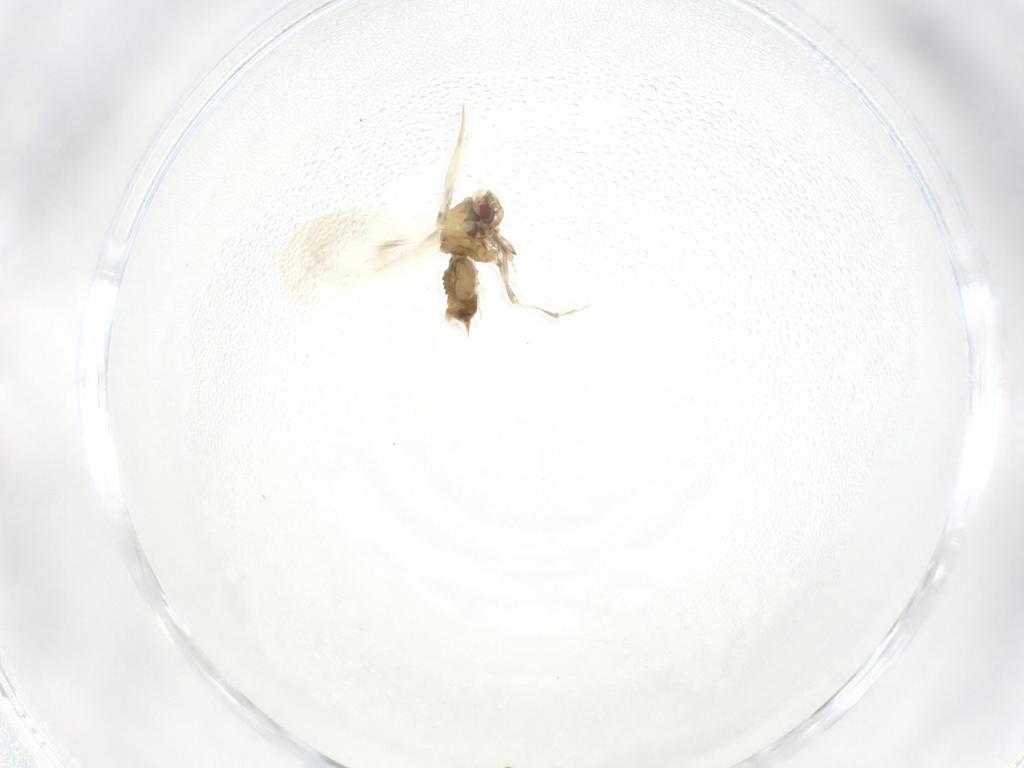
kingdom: Animalia
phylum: Arthropoda
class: Insecta
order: Hemiptera
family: Aleyrodidae
